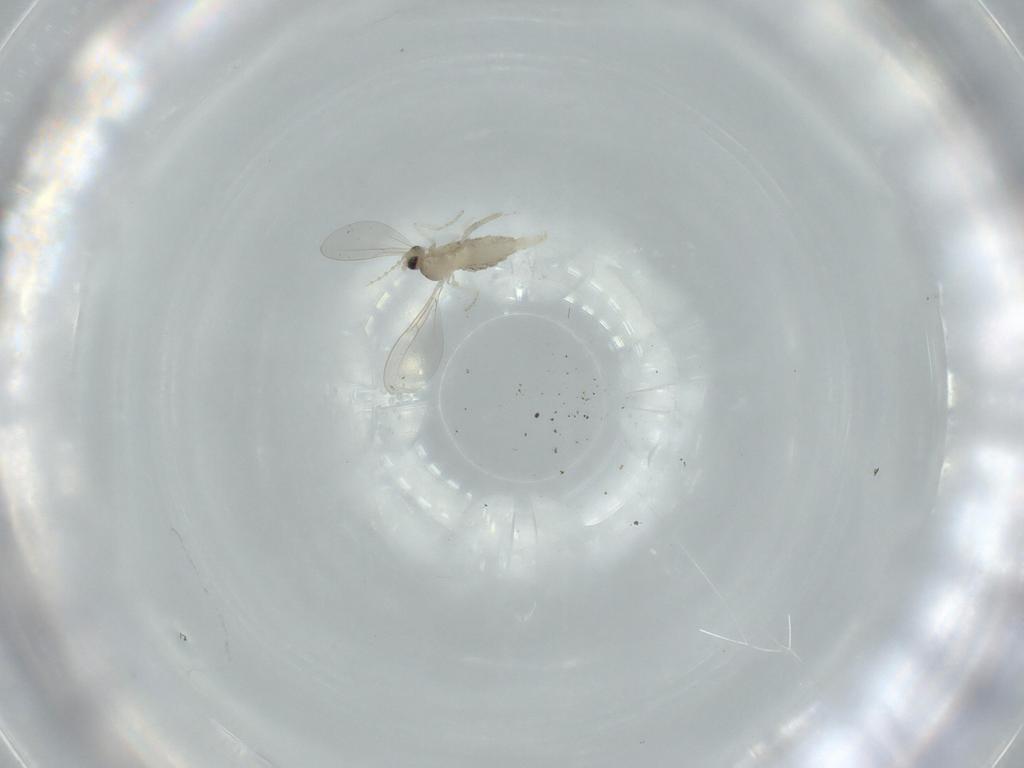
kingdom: Animalia
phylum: Arthropoda
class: Insecta
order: Diptera
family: Cecidomyiidae
